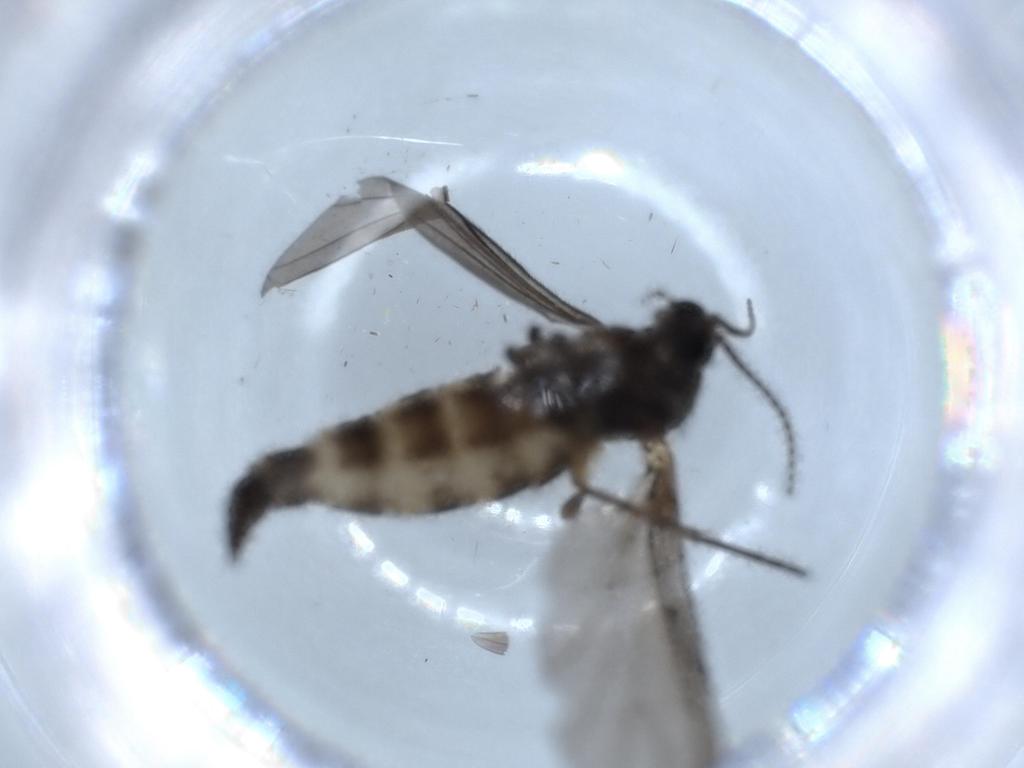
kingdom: Animalia
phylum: Arthropoda
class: Insecta
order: Diptera
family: Sciaridae
